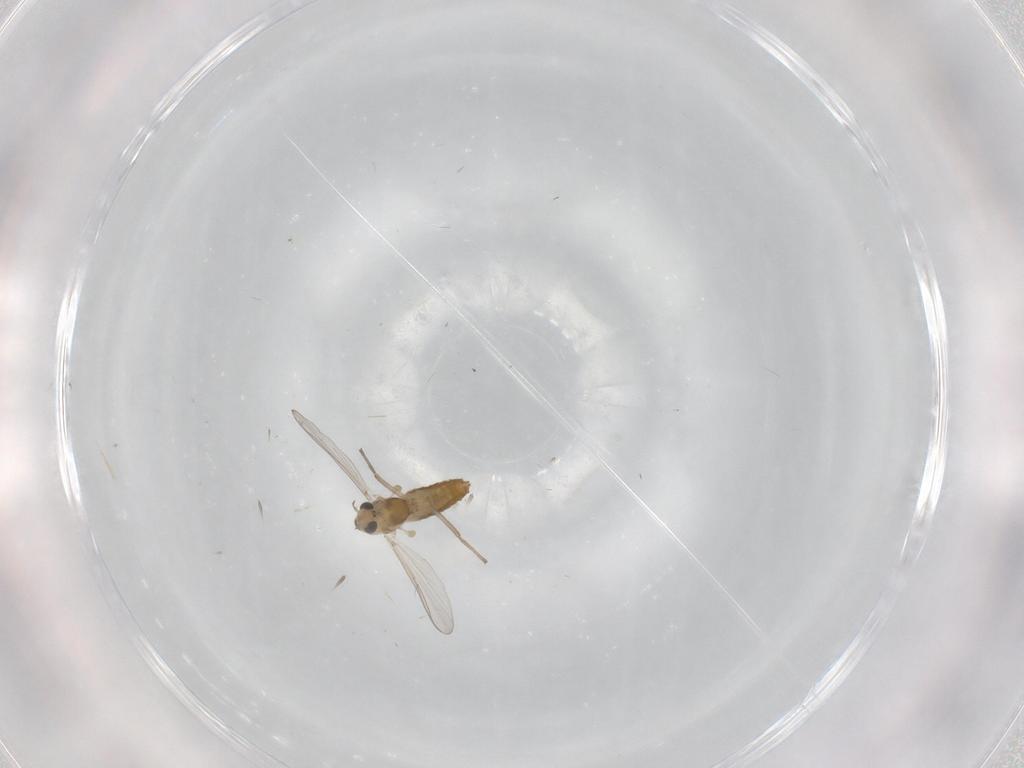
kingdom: Animalia
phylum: Arthropoda
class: Insecta
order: Diptera
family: Chironomidae
